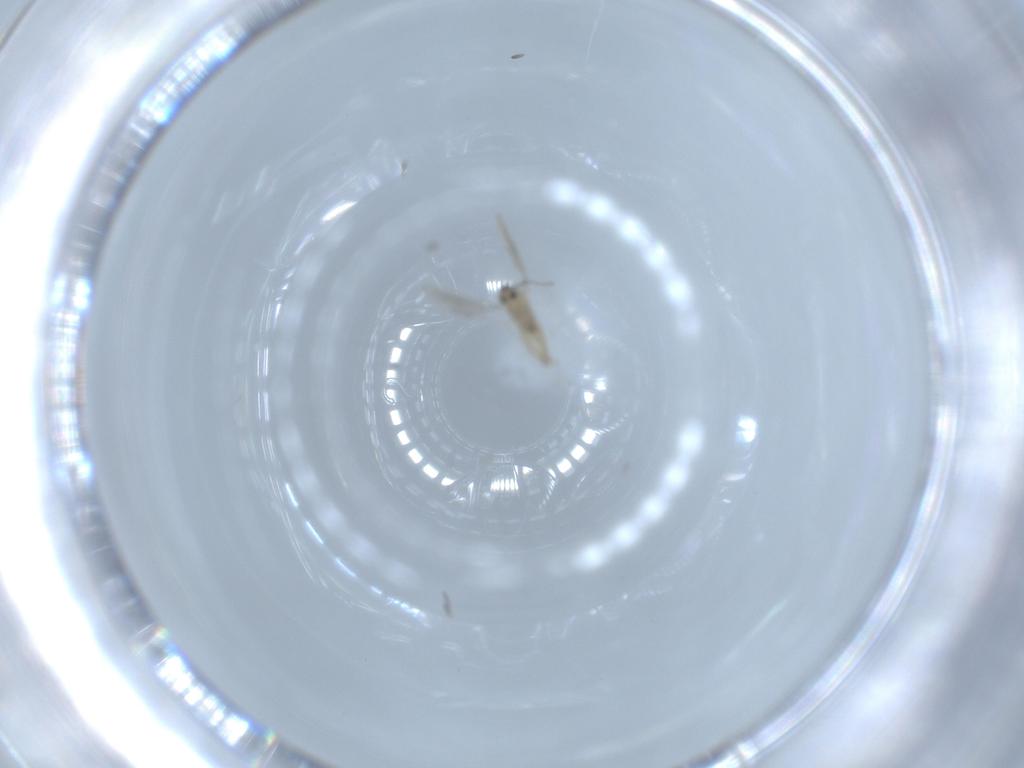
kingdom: Animalia
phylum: Arthropoda
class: Insecta
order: Diptera
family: Cecidomyiidae
